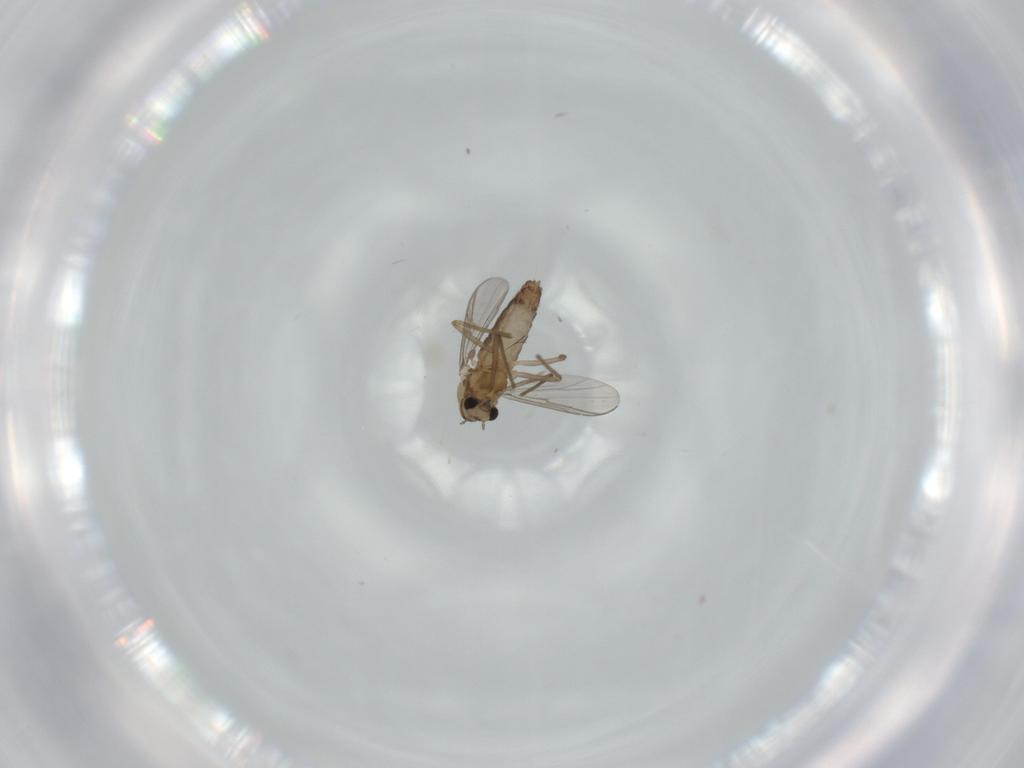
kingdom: Animalia
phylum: Arthropoda
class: Insecta
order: Diptera
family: Chironomidae
